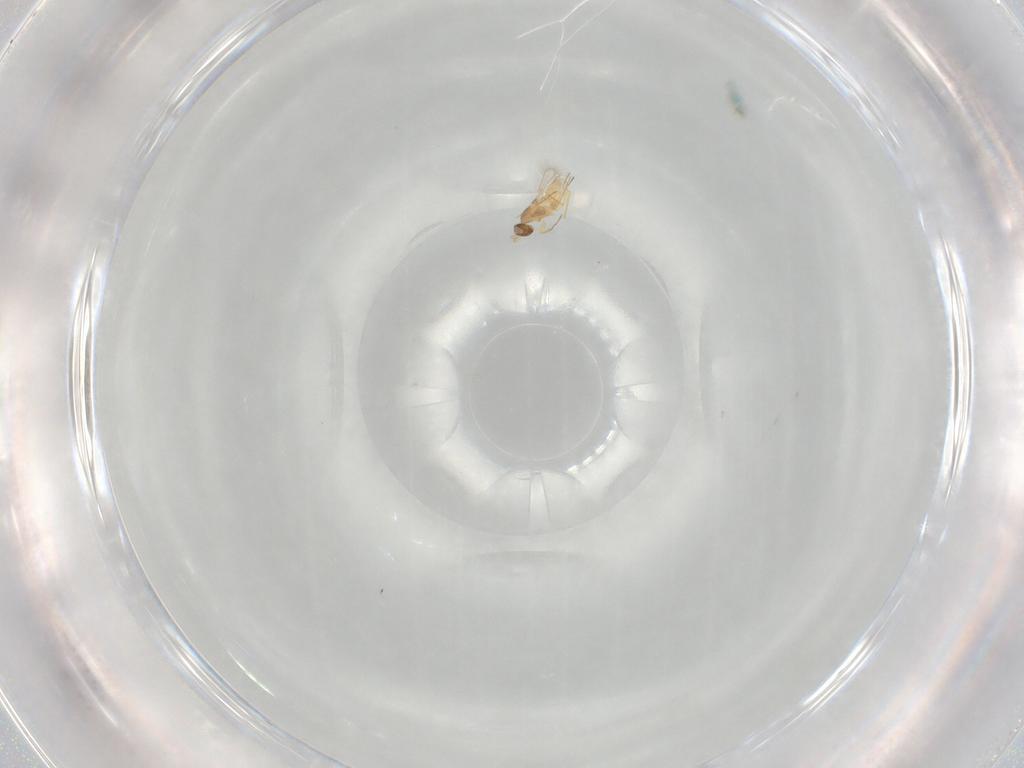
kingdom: Animalia
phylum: Arthropoda
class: Insecta
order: Hymenoptera
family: Mymaridae
